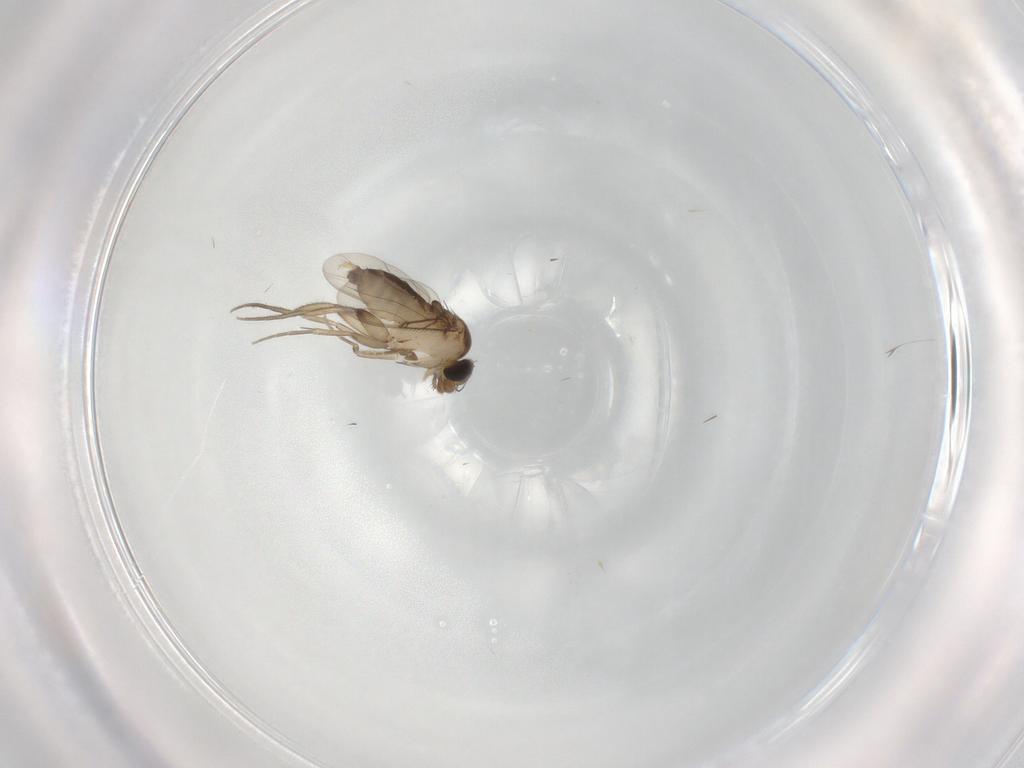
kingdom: Animalia
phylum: Arthropoda
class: Insecta
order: Diptera
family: Phoridae
